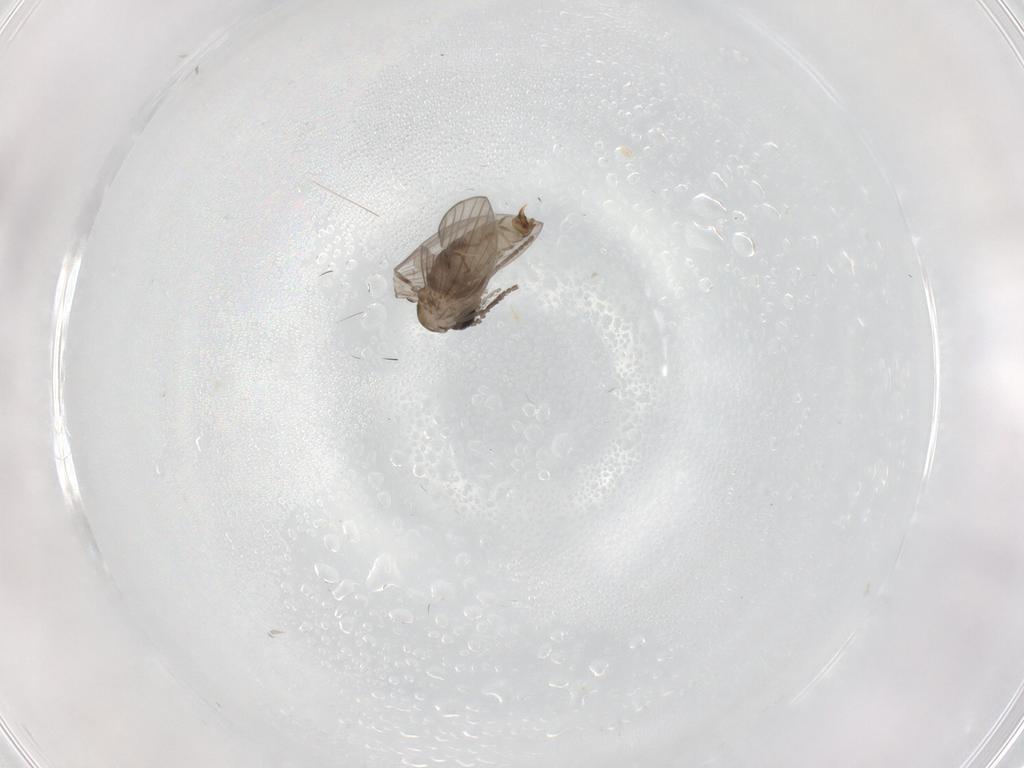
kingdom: Animalia
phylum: Arthropoda
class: Insecta
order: Diptera
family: Psychodidae
